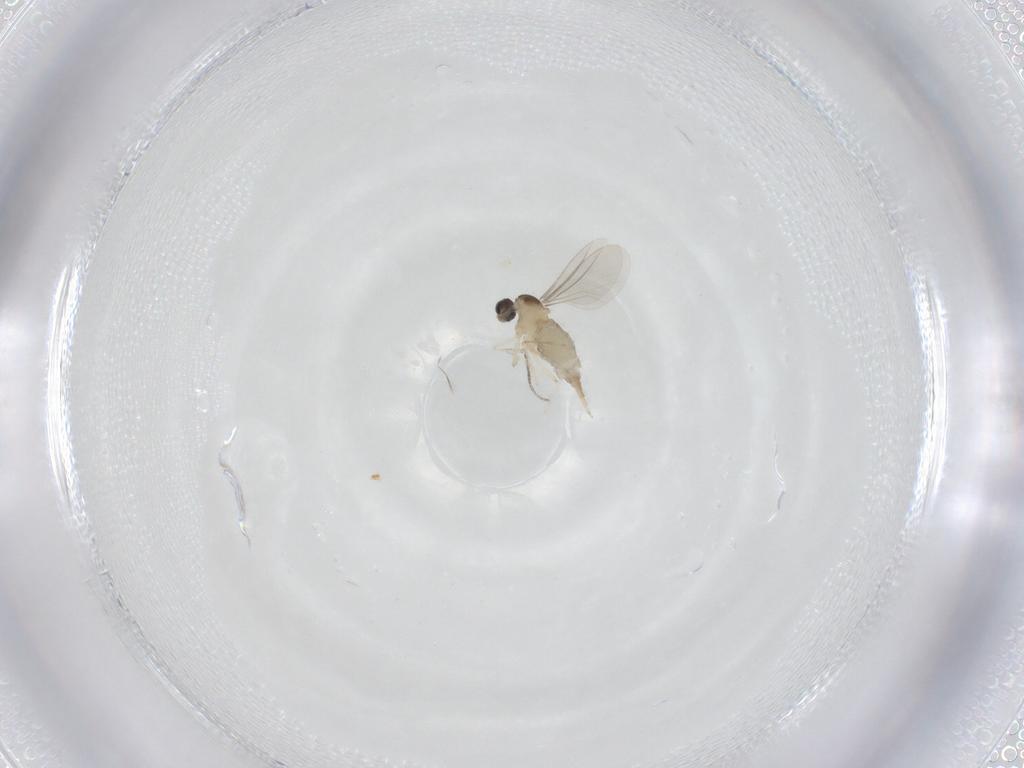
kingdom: Animalia
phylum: Arthropoda
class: Insecta
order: Diptera
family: Cecidomyiidae
